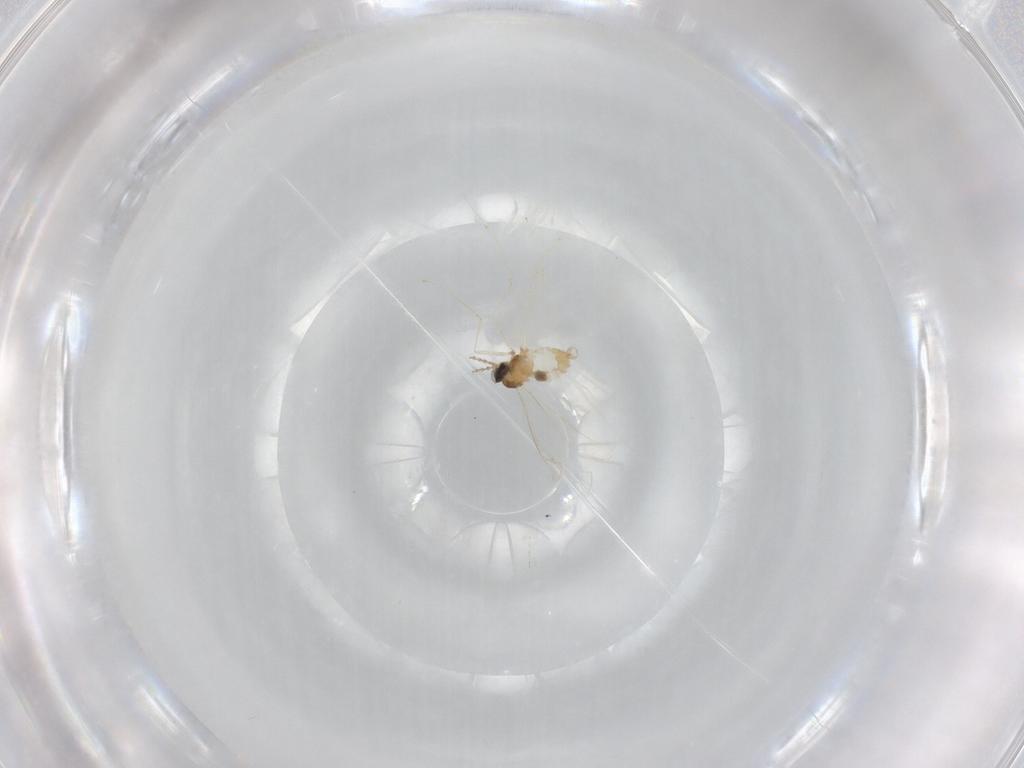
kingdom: Animalia
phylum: Arthropoda
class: Insecta
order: Diptera
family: Cecidomyiidae
